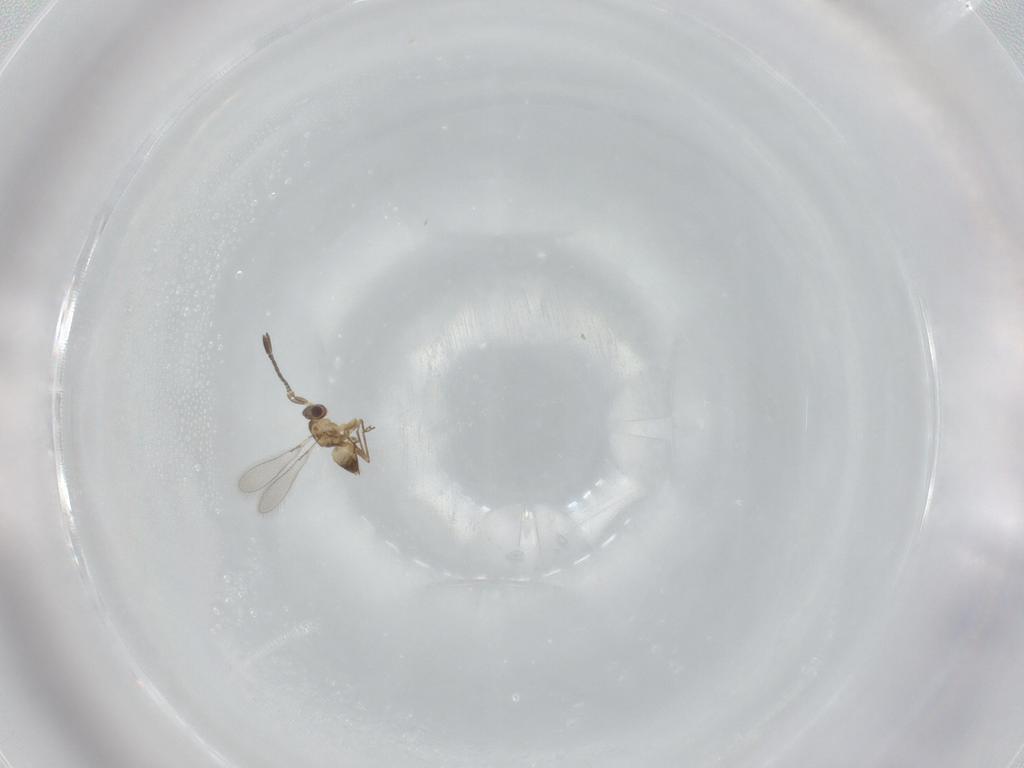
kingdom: Animalia
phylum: Arthropoda
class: Insecta
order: Hymenoptera
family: Mymaridae
